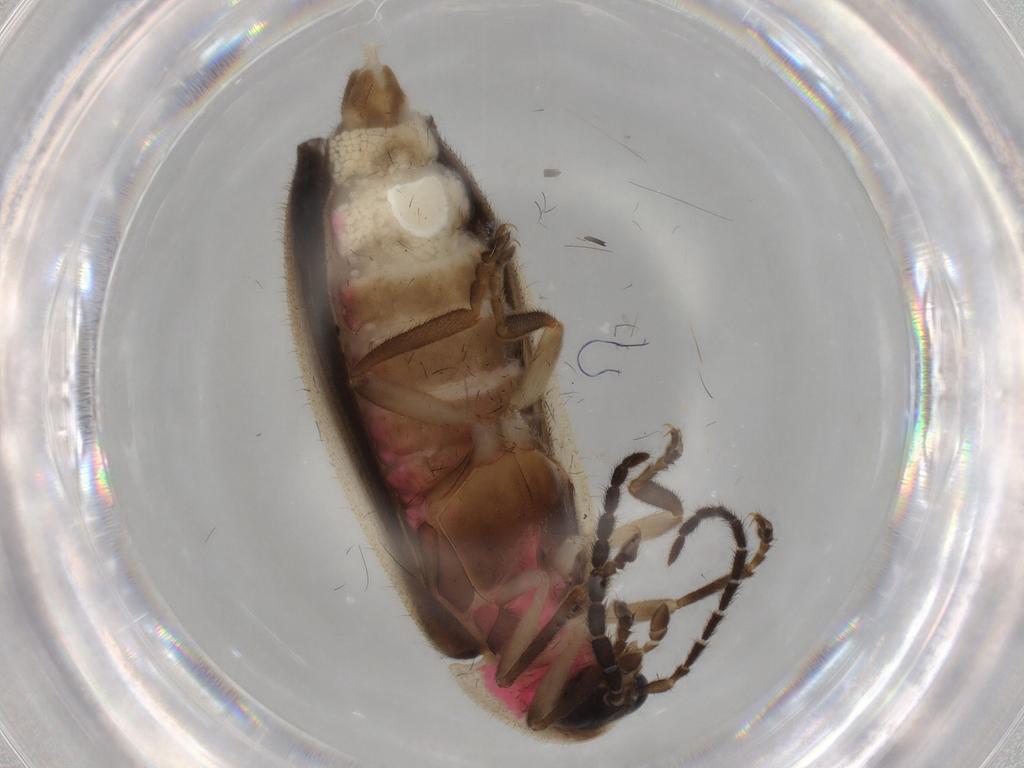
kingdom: Animalia
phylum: Arthropoda
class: Insecta
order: Coleoptera
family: Lampyridae
